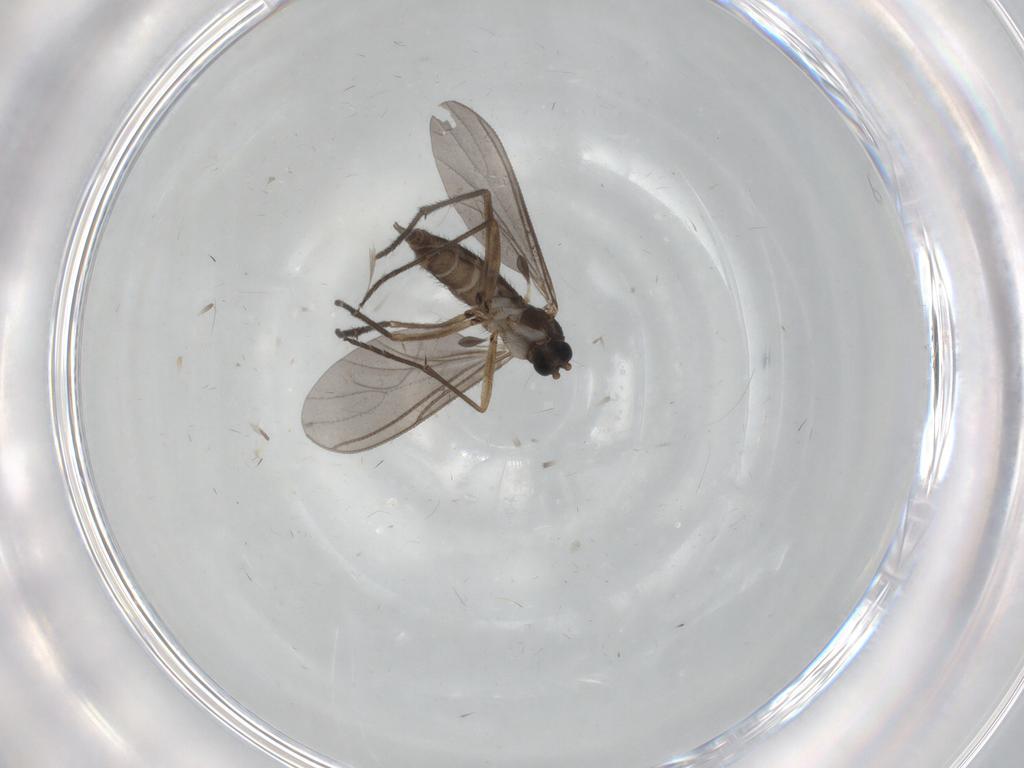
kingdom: Animalia
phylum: Arthropoda
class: Insecta
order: Diptera
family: Sciaridae
